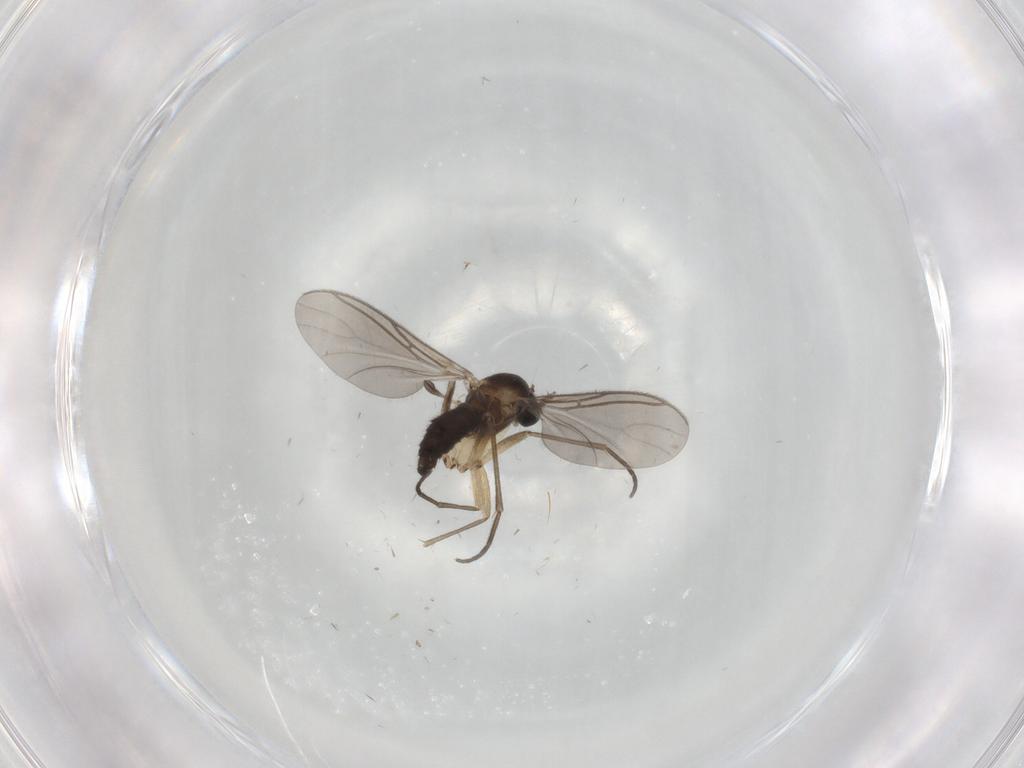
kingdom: Animalia
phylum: Arthropoda
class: Insecta
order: Diptera
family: Sciaridae
